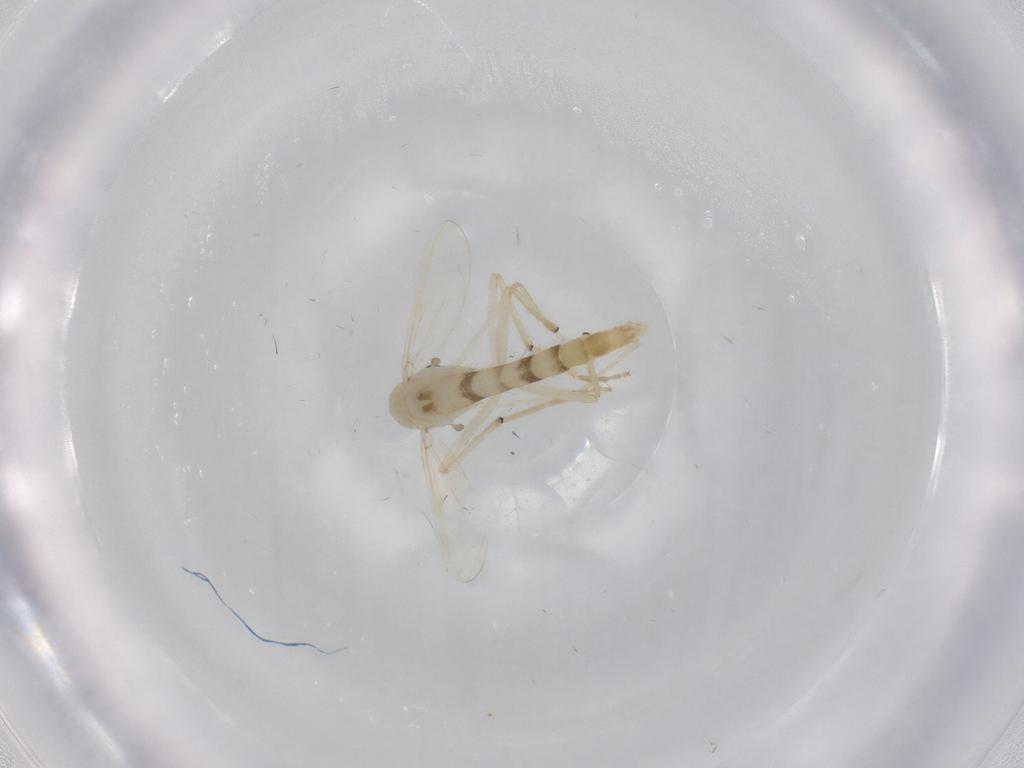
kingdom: Animalia
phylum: Arthropoda
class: Insecta
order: Diptera
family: Chironomidae
